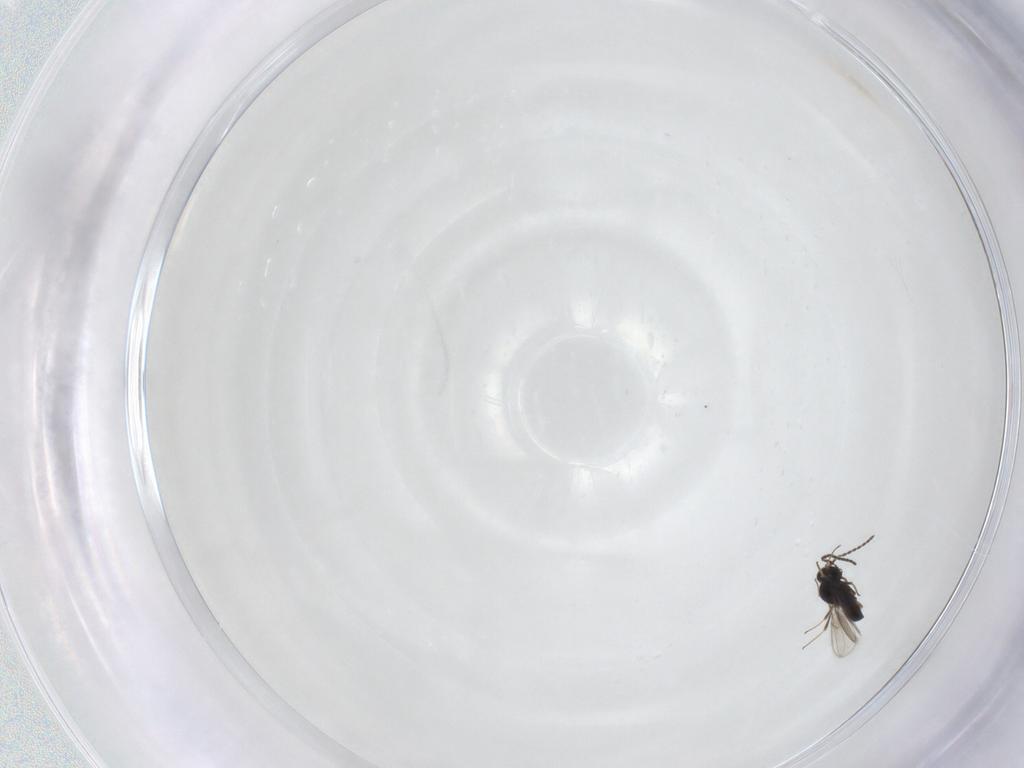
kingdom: Animalia
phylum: Arthropoda
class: Insecta
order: Hymenoptera
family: Scelionidae
